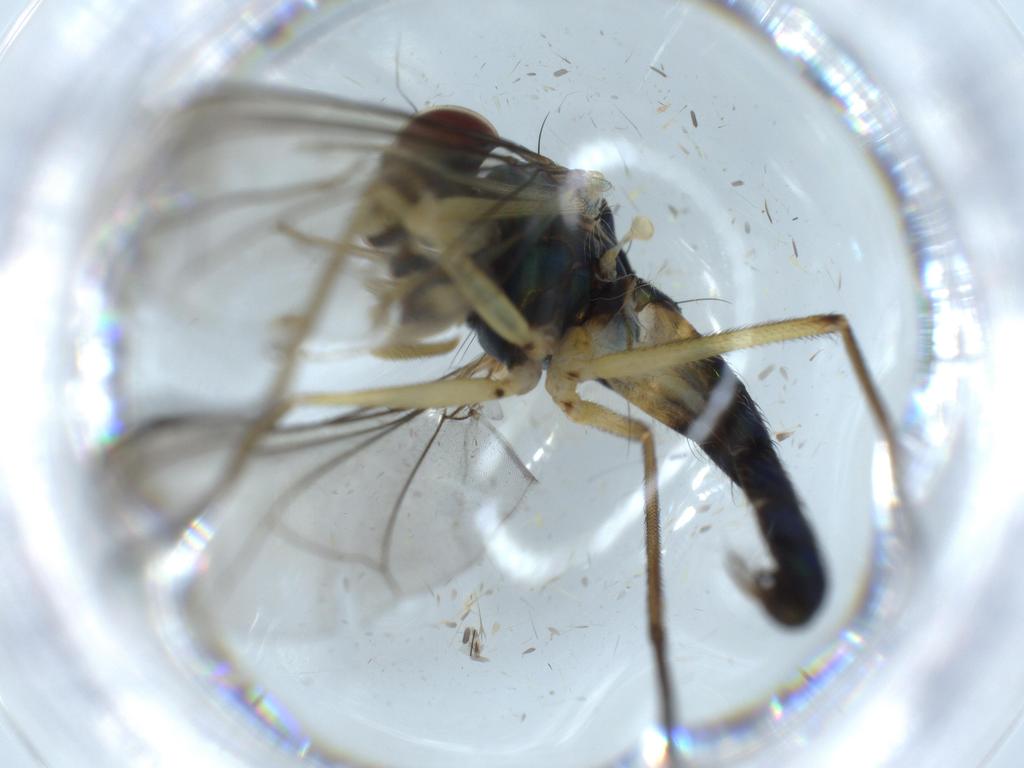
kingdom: Animalia
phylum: Arthropoda
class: Insecta
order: Diptera
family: Dolichopodidae
